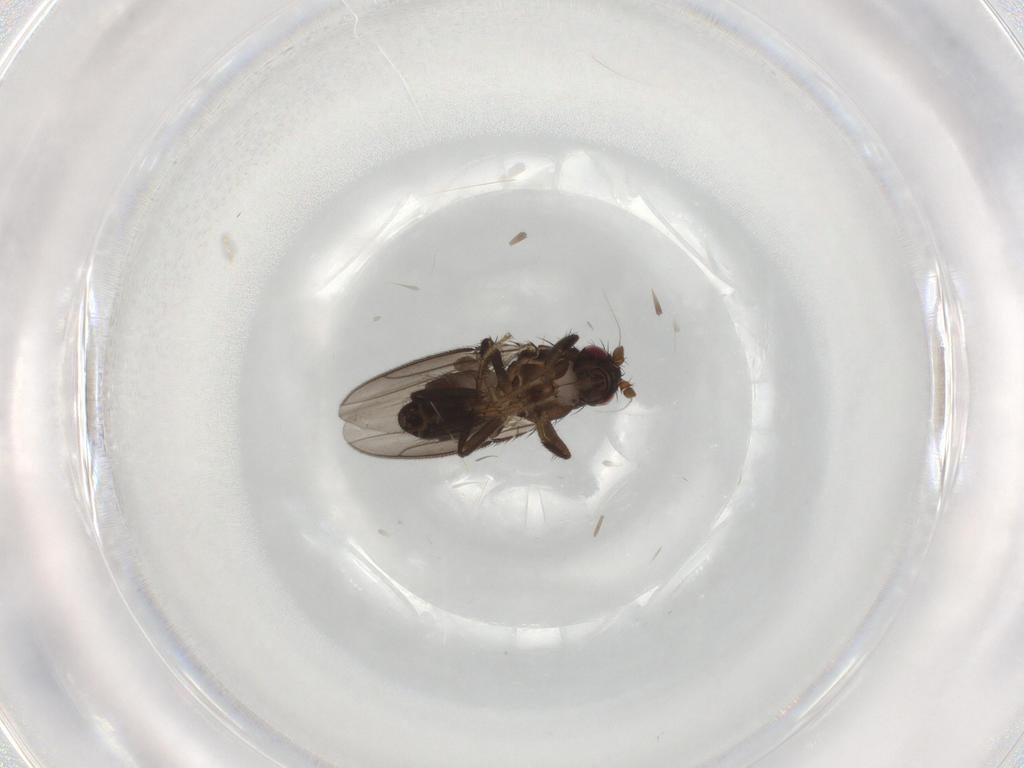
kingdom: Animalia
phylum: Arthropoda
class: Insecta
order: Diptera
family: Sphaeroceridae
